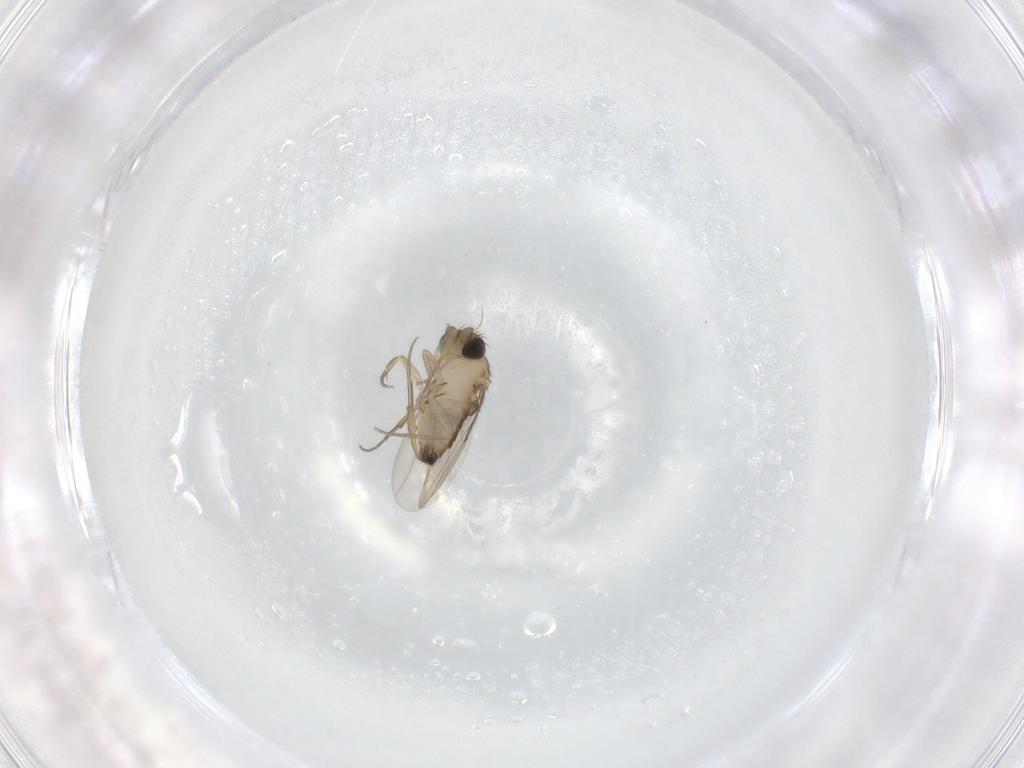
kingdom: Animalia
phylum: Arthropoda
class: Insecta
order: Diptera
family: Phoridae
